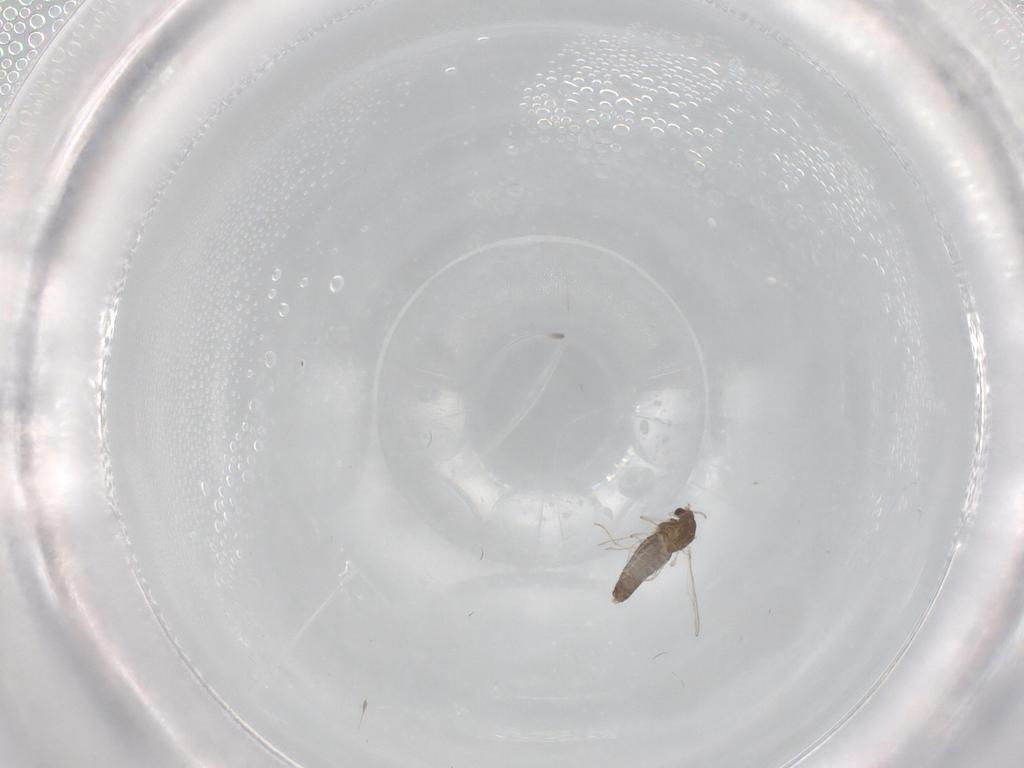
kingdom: Animalia
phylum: Arthropoda
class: Insecta
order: Diptera
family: Chironomidae
